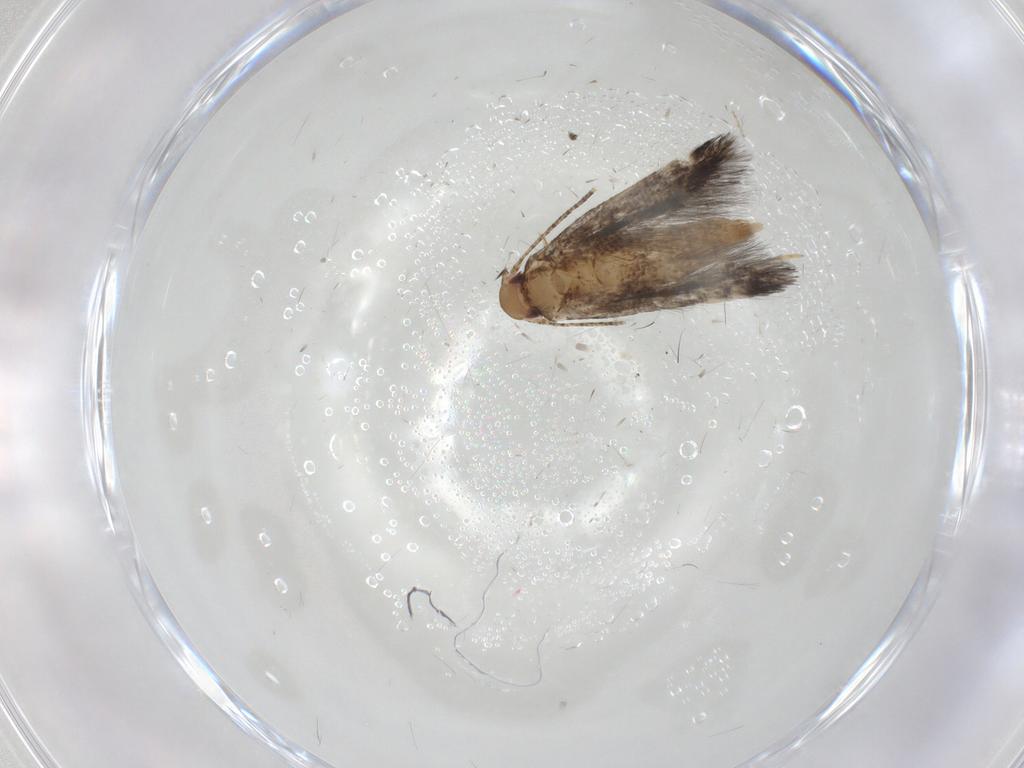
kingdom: Animalia
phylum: Arthropoda
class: Insecta
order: Lepidoptera
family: Momphidae
